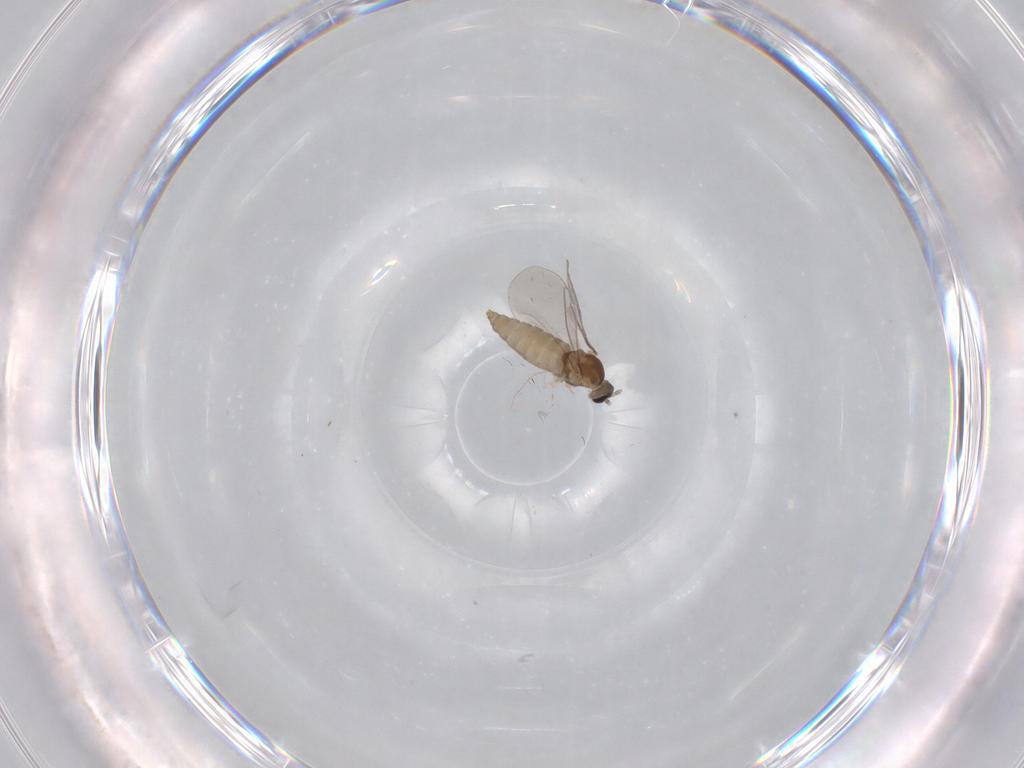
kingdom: Animalia
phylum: Arthropoda
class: Insecta
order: Diptera
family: Cecidomyiidae
